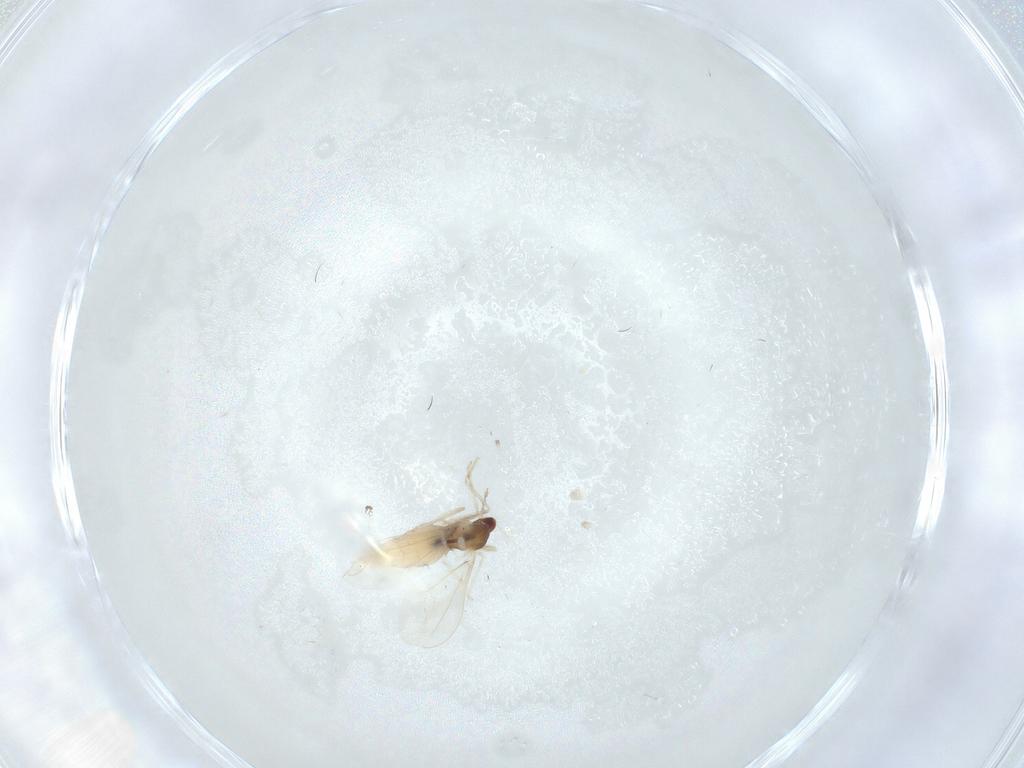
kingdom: Animalia
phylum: Arthropoda
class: Insecta
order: Diptera
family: Cecidomyiidae
